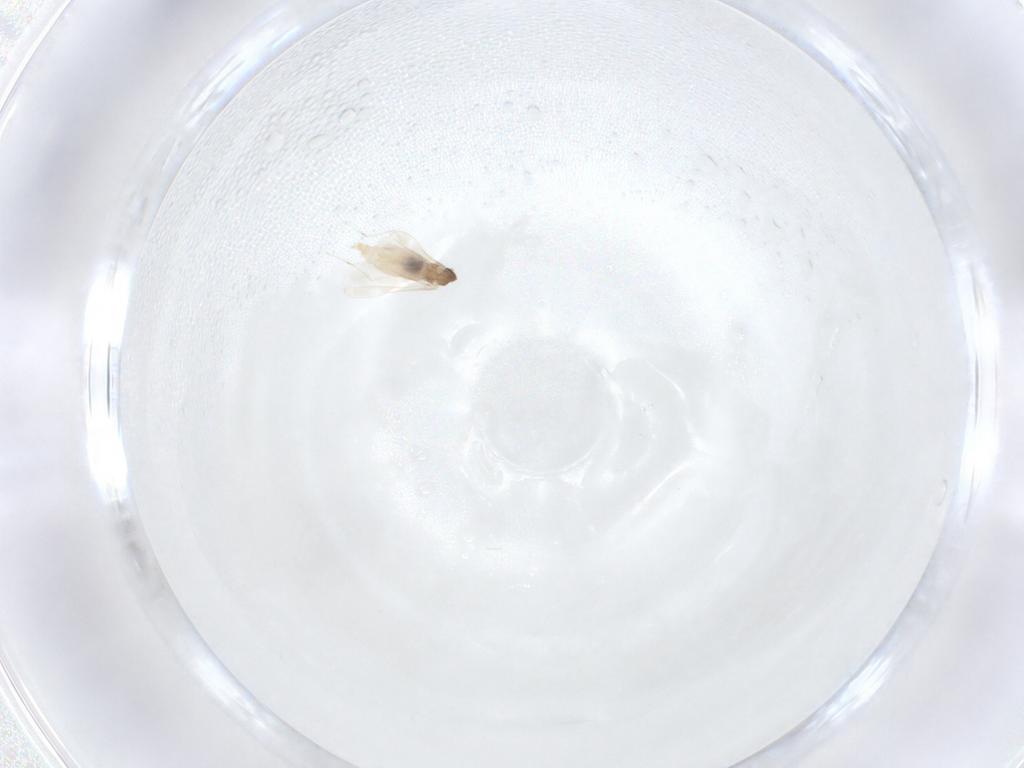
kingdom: Animalia
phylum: Arthropoda
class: Insecta
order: Diptera
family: Cecidomyiidae
